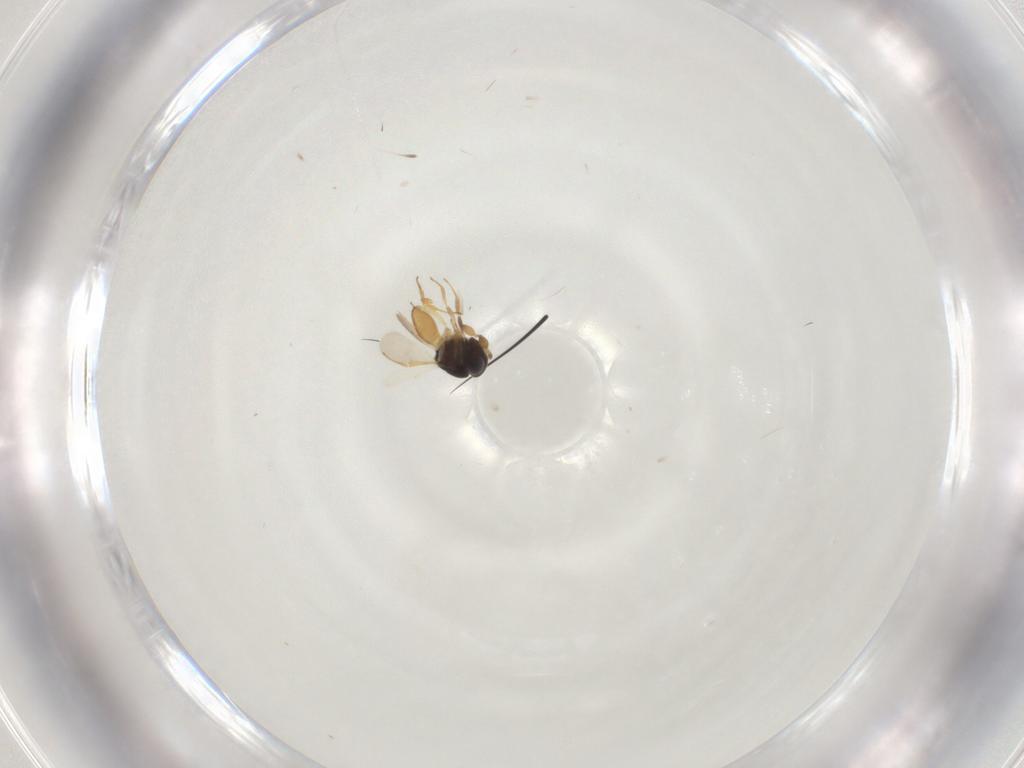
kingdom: Animalia
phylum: Arthropoda
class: Insecta
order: Hymenoptera
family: Scelionidae
